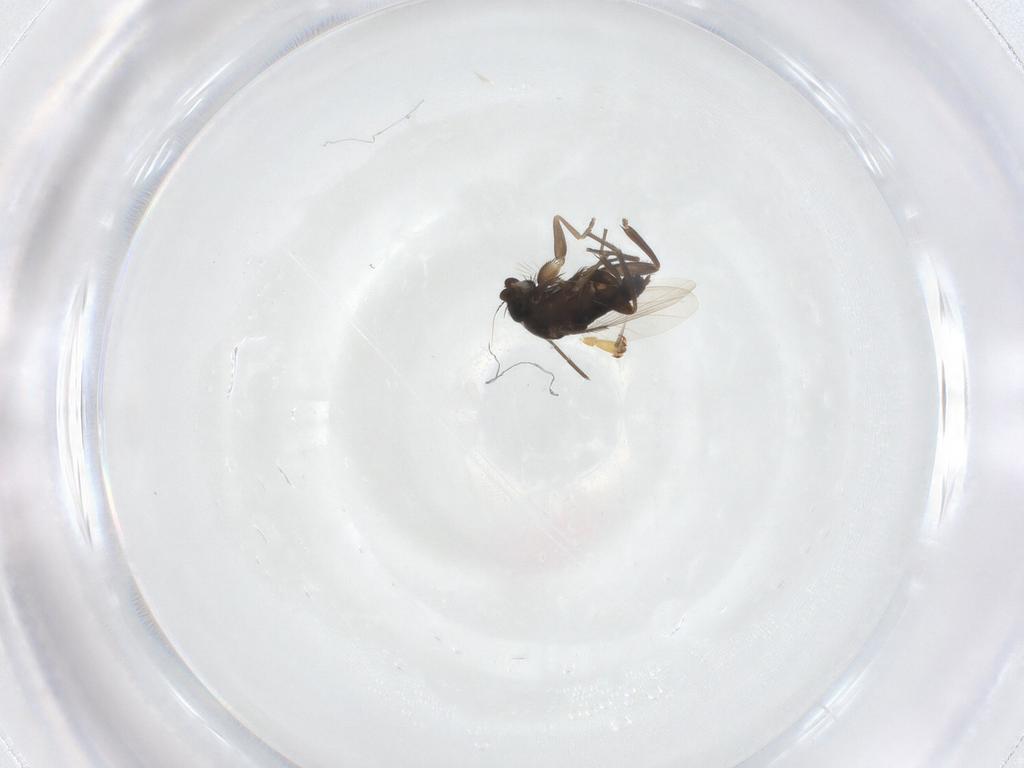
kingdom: Animalia
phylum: Arthropoda
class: Insecta
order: Diptera
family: Phoridae
